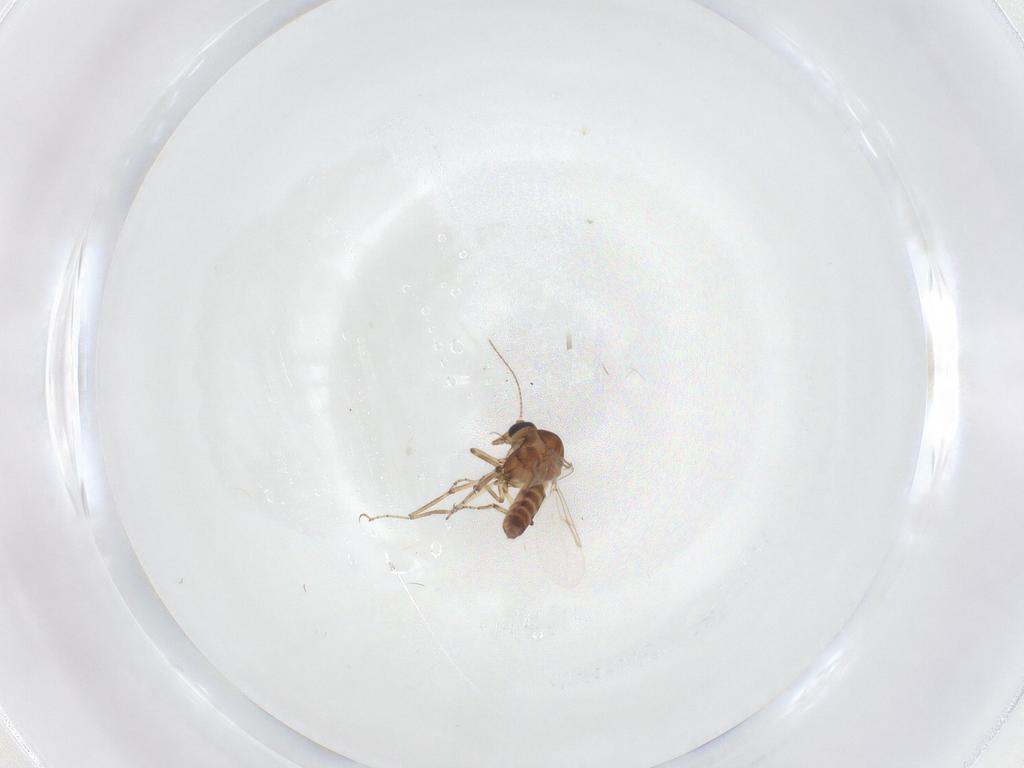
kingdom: Animalia
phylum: Arthropoda
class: Insecta
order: Diptera
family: Ceratopogonidae
